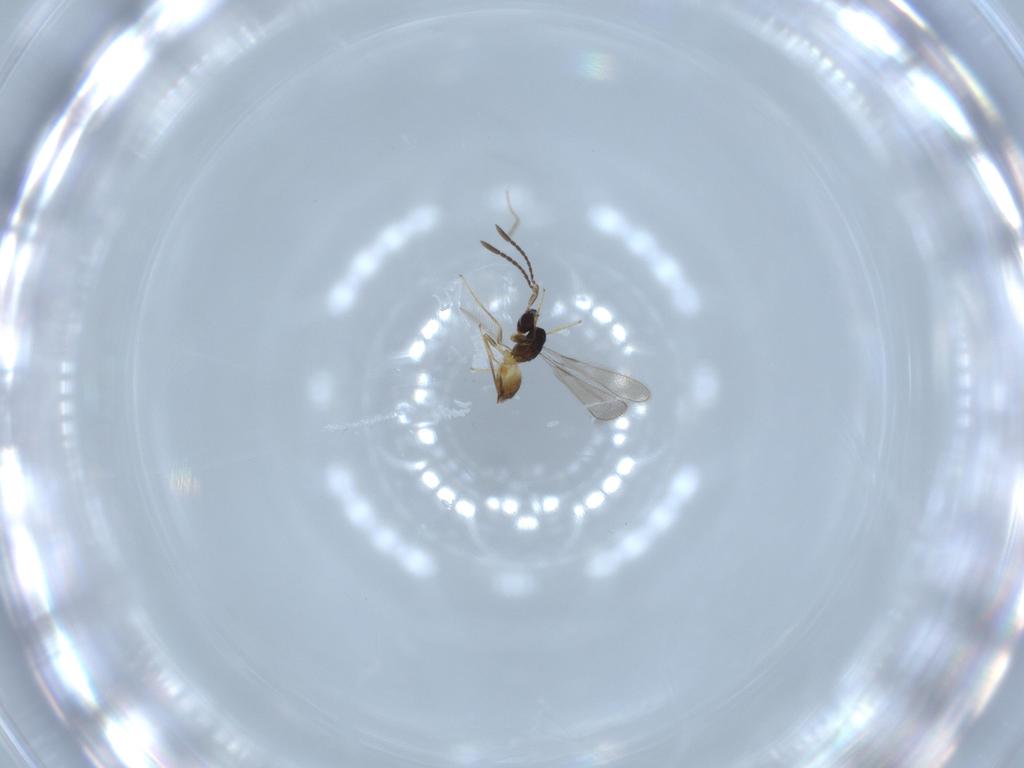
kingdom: Animalia
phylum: Arthropoda
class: Insecta
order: Hymenoptera
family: Mymaridae
